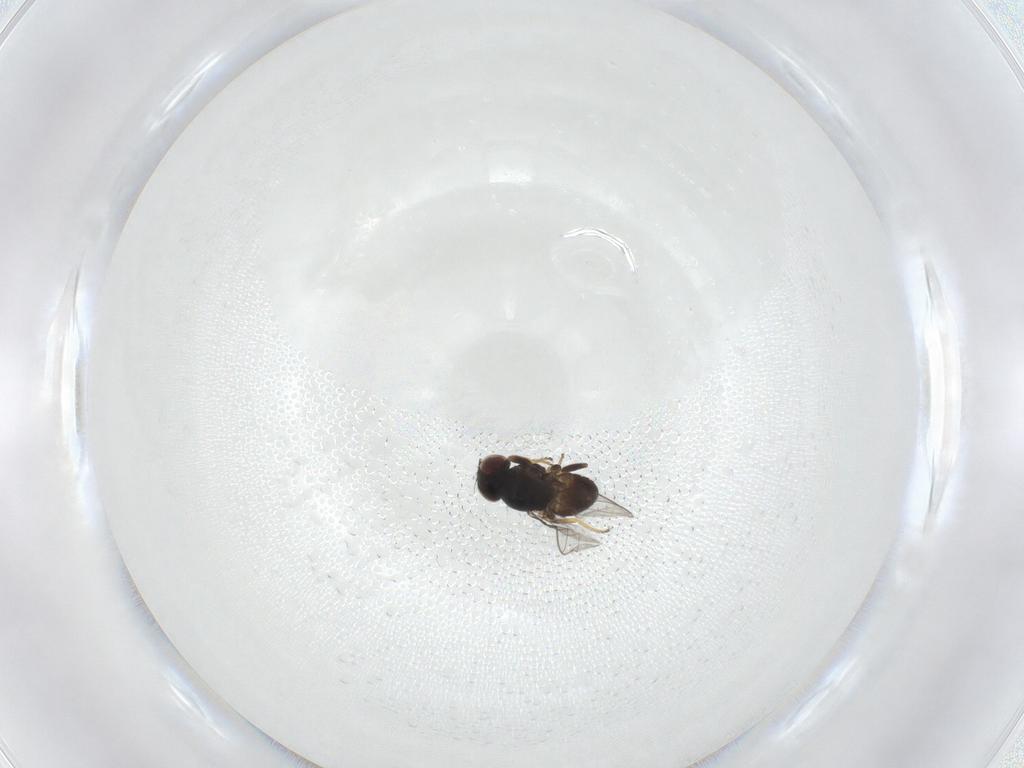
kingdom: Animalia
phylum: Arthropoda
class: Insecta
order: Diptera
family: Chloropidae
